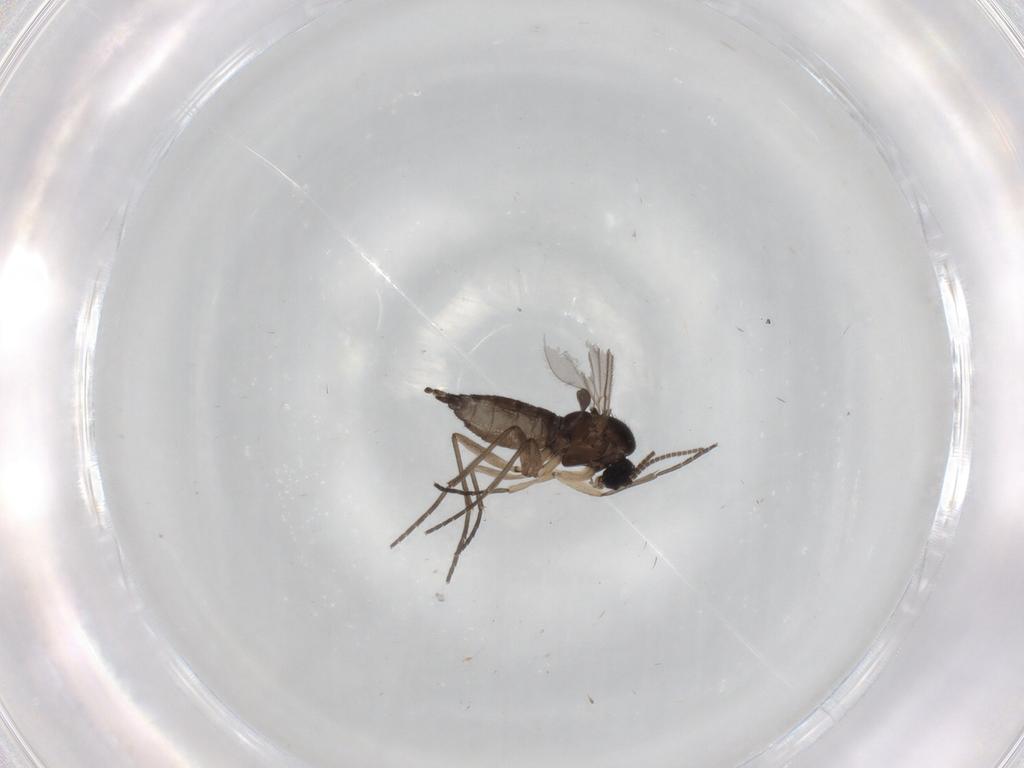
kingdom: Animalia
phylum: Arthropoda
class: Insecta
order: Diptera
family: Sciaridae
